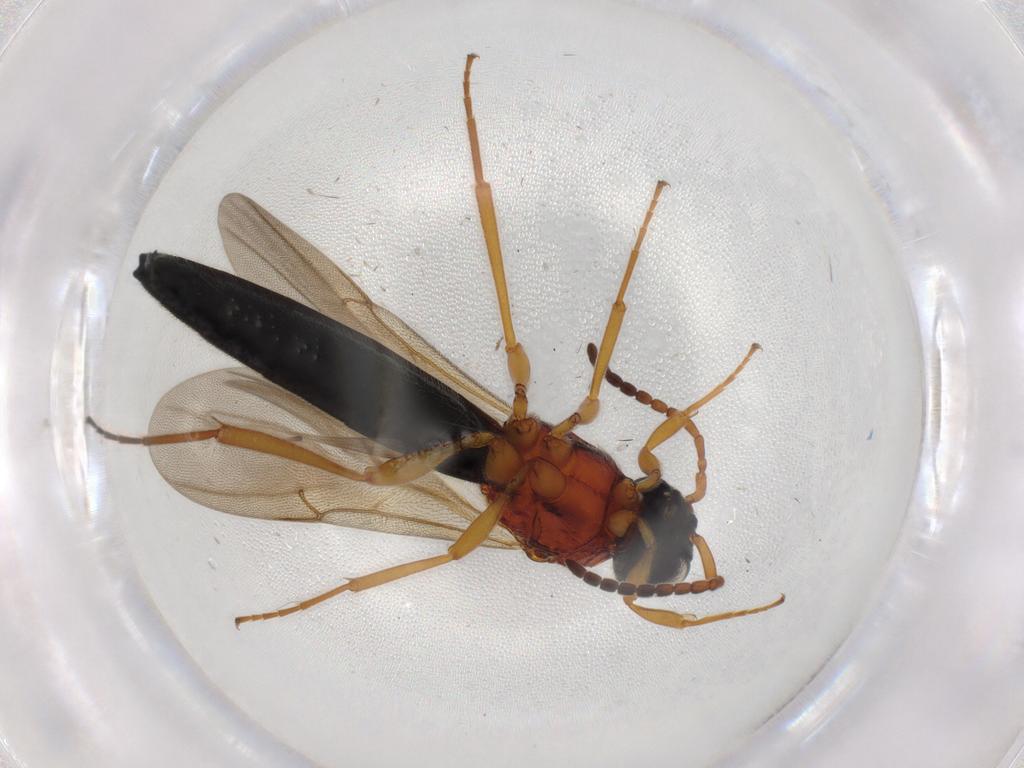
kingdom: Animalia
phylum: Arthropoda
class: Insecta
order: Hymenoptera
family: Scelionidae
